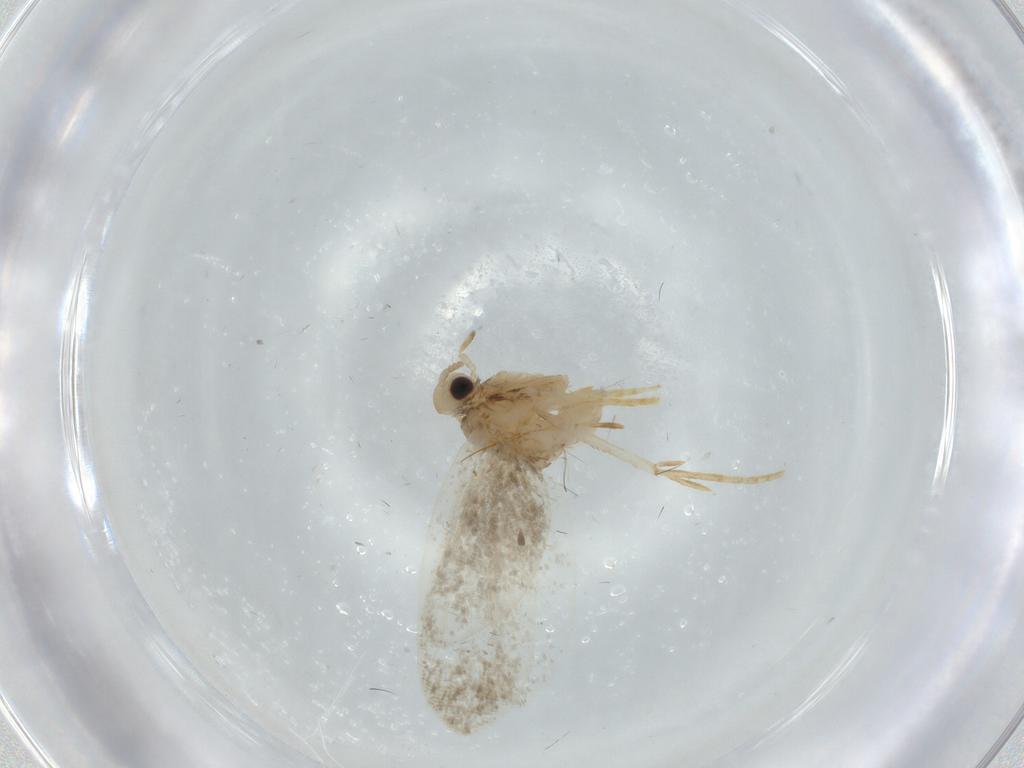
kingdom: Animalia
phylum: Arthropoda
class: Insecta
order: Lepidoptera
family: Psychidae
